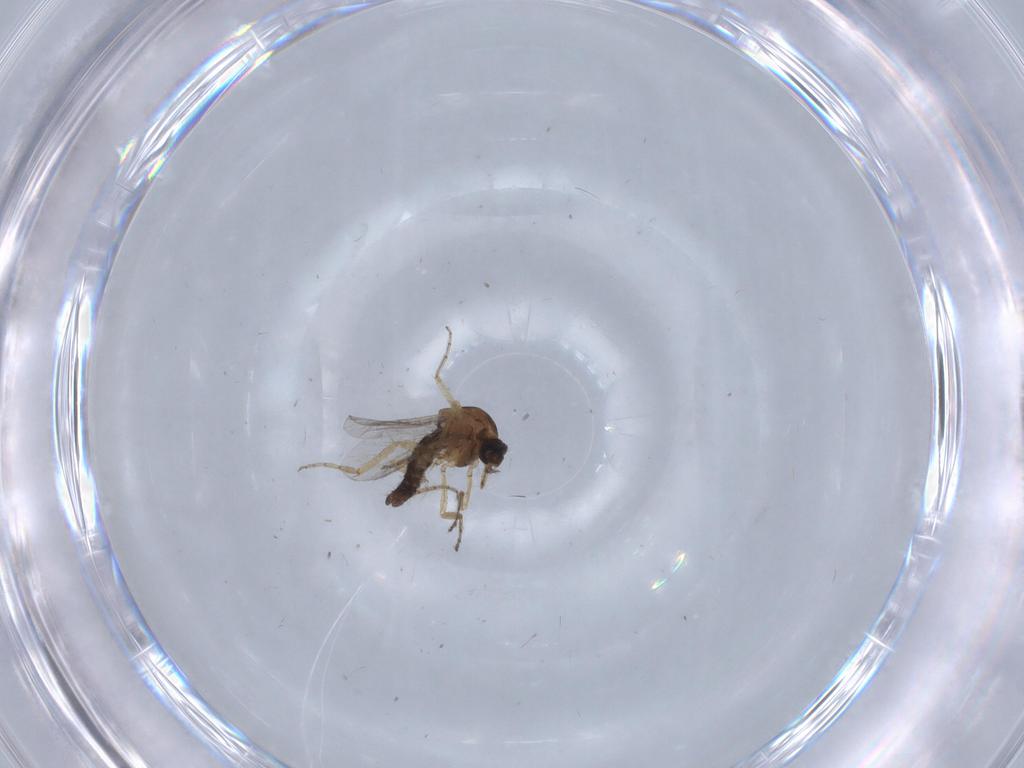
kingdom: Animalia
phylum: Arthropoda
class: Insecta
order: Diptera
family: Ceratopogonidae
